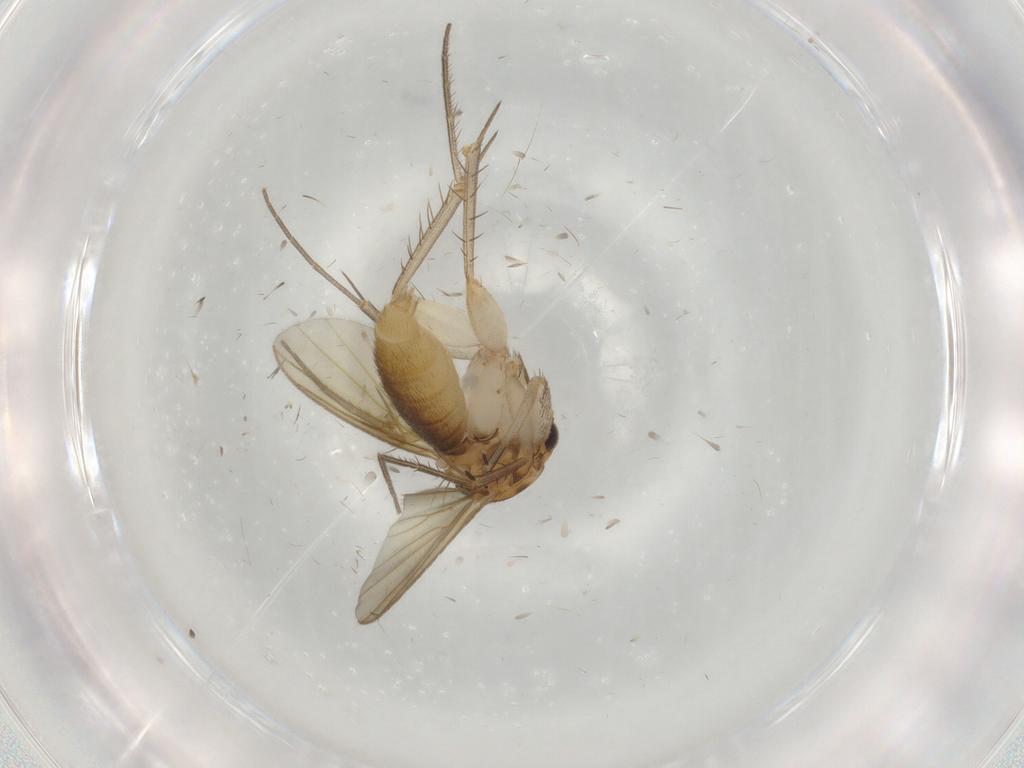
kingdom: Animalia
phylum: Arthropoda
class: Insecta
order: Diptera
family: Mycetophilidae
